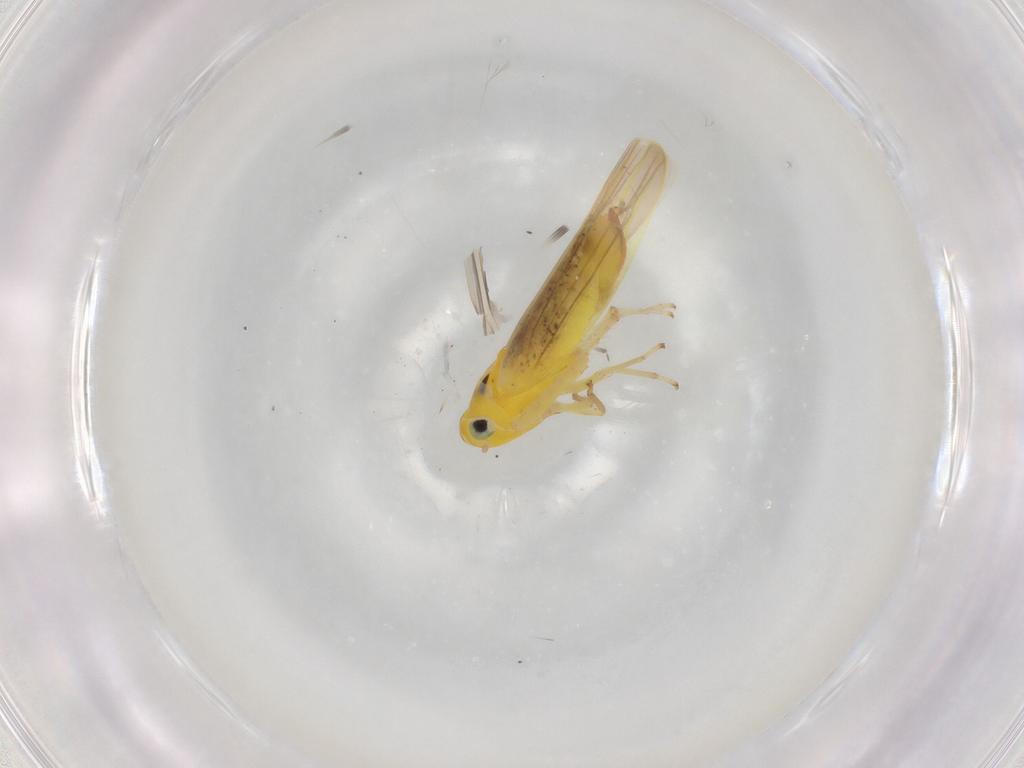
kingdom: Animalia
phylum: Arthropoda
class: Insecta
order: Hemiptera
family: Cicadellidae
